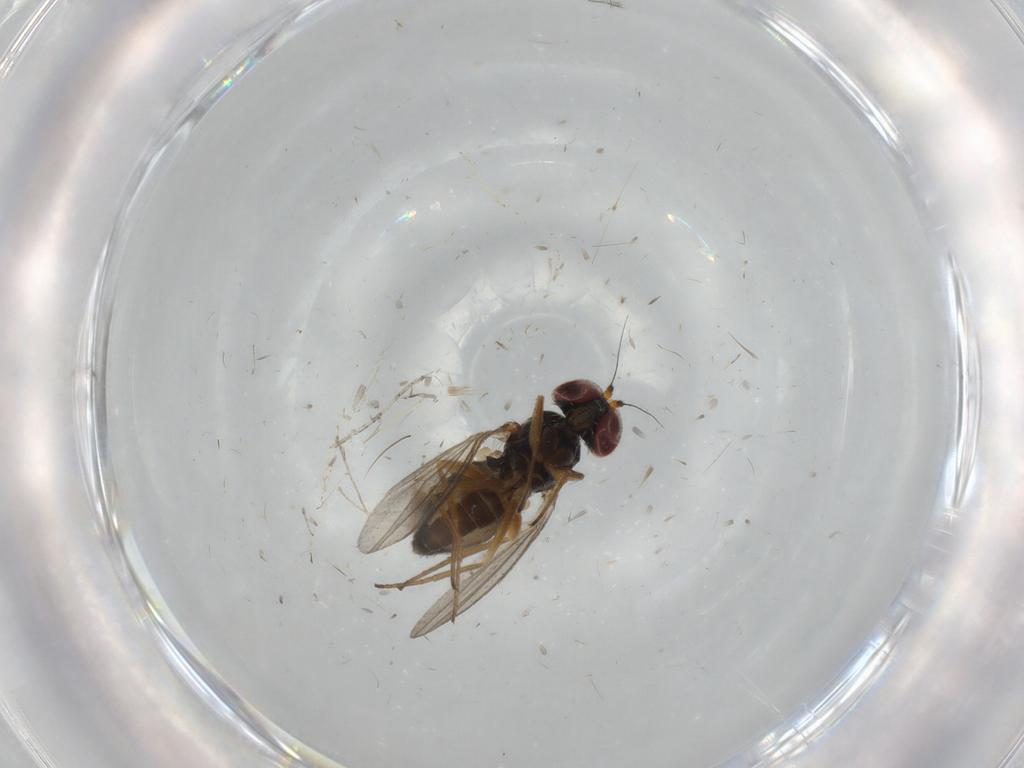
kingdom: Animalia
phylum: Arthropoda
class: Insecta
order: Diptera
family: Dolichopodidae
